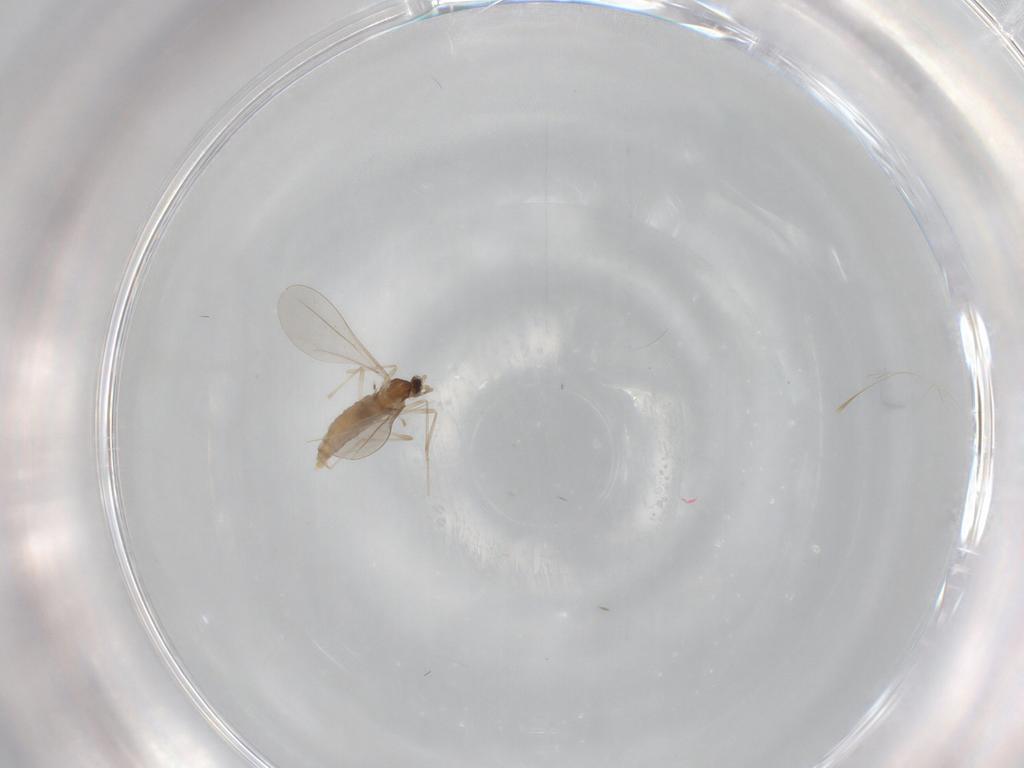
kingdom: Animalia
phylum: Arthropoda
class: Insecta
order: Diptera
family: Cecidomyiidae
